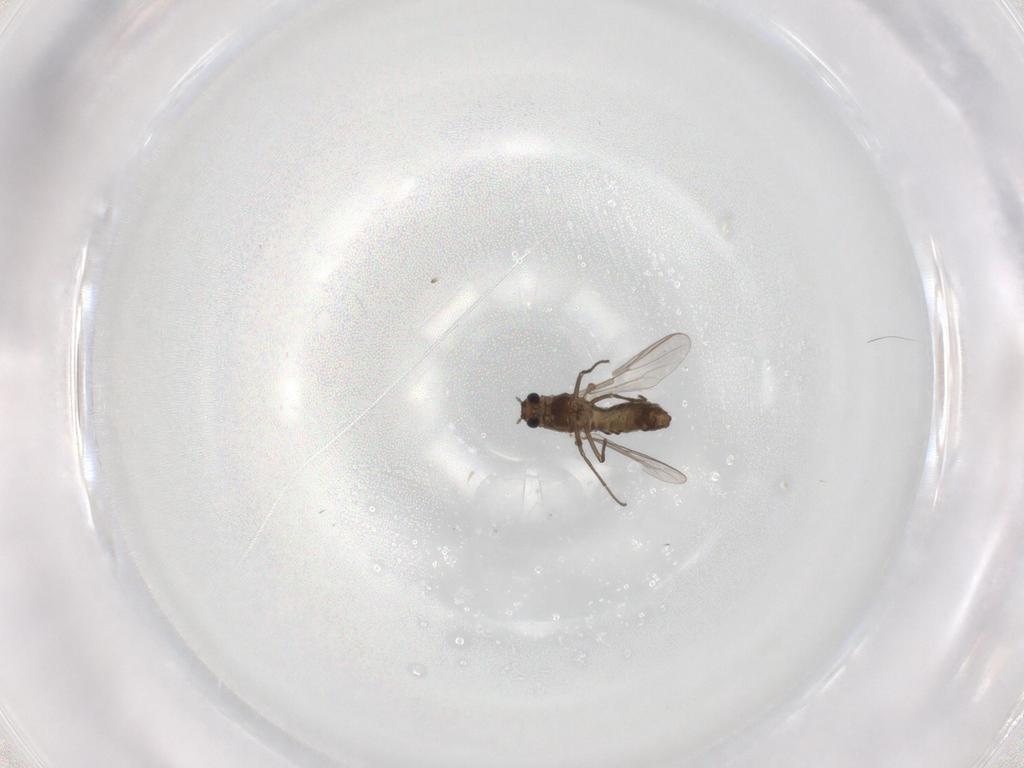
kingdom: Animalia
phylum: Arthropoda
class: Insecta
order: Diptera
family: Chironomidae
